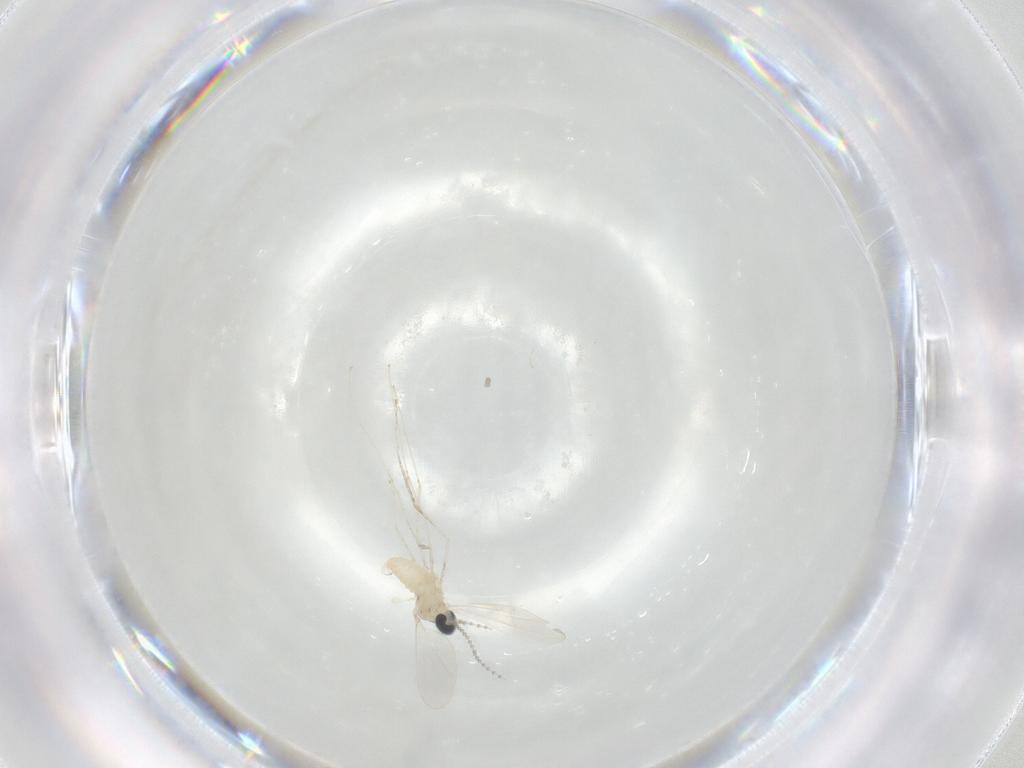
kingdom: Animalia
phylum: Arthropoda
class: Insecta
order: Diptera
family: Cecidomyiidae
